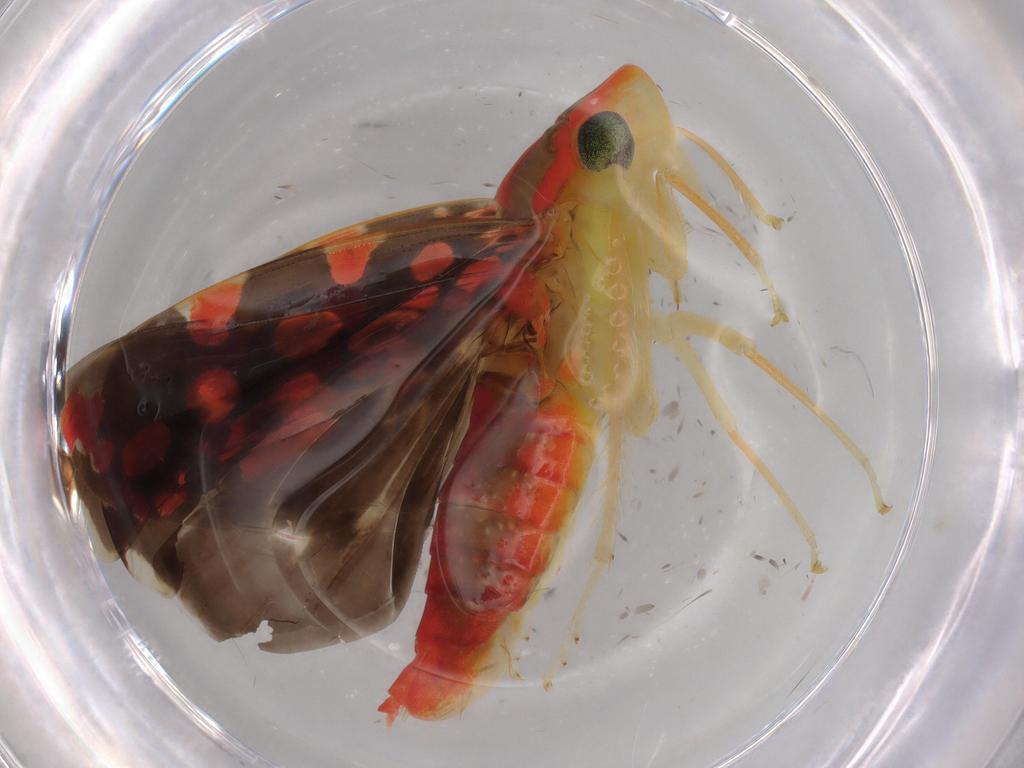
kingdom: Animalia
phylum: Arthropoda
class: Insecta
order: Hemiptera
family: Cicadellidae
